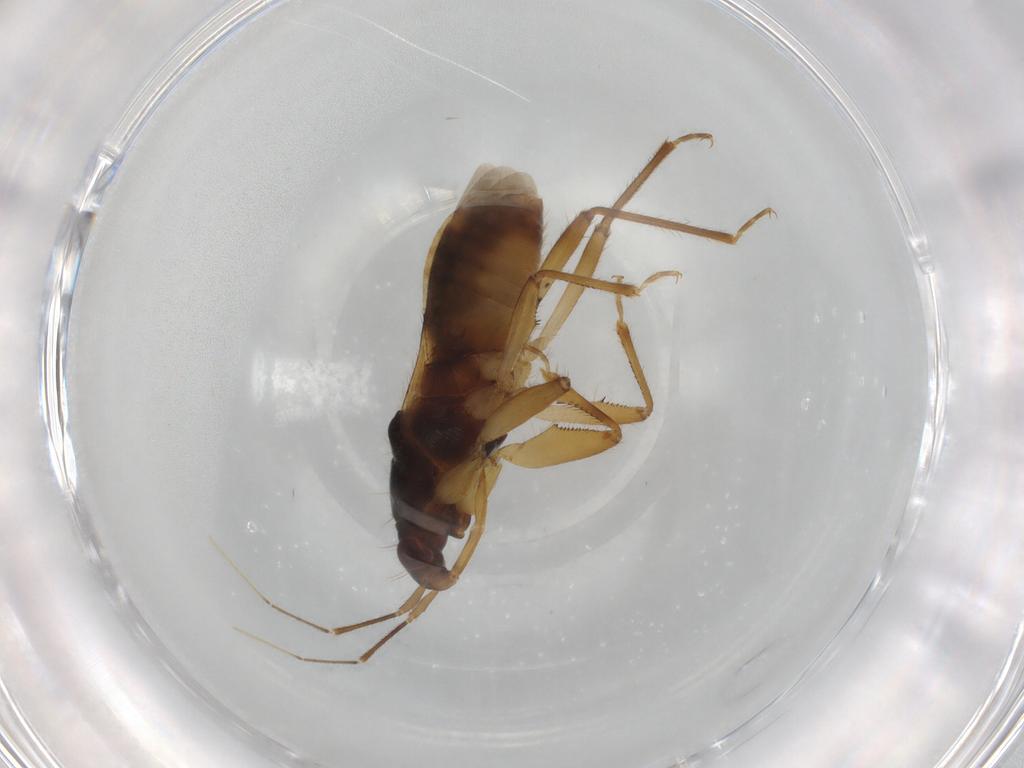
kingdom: Animalia
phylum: Arthropoda
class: Insecta
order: Hemiptera
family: Nabidae
